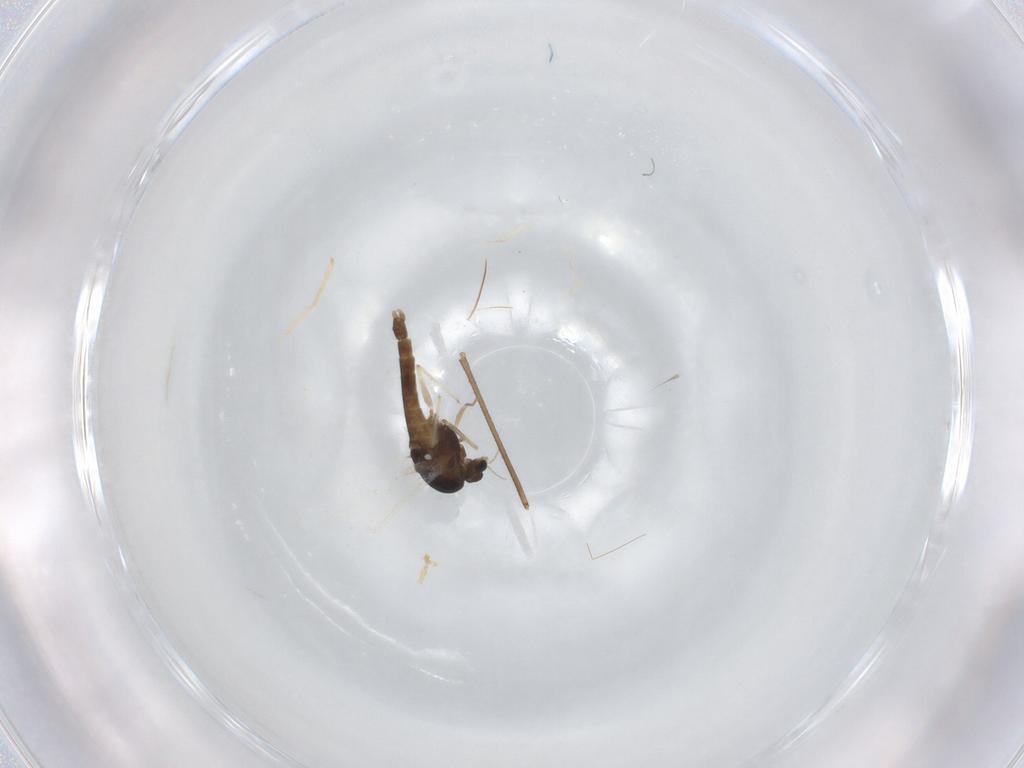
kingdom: Animalia
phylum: Arthropoda
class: Insecta
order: Diptera
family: Chironomidae
